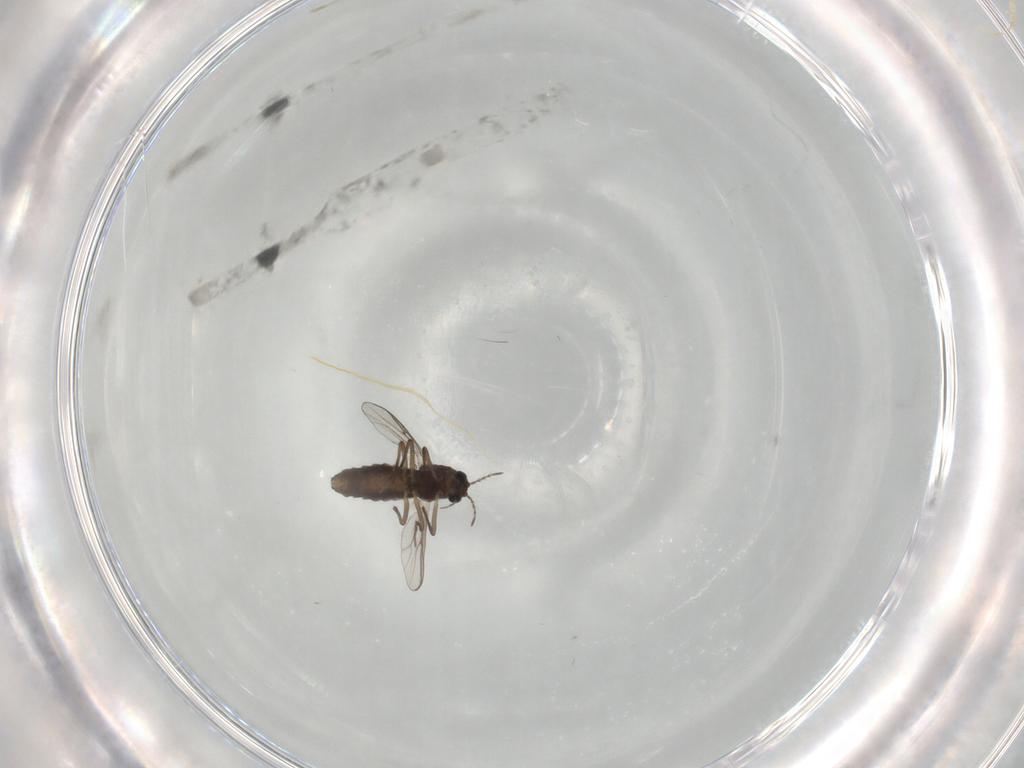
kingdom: Animalia
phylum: Arthropoda
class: Insecta
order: Diptera
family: Chironomidae
